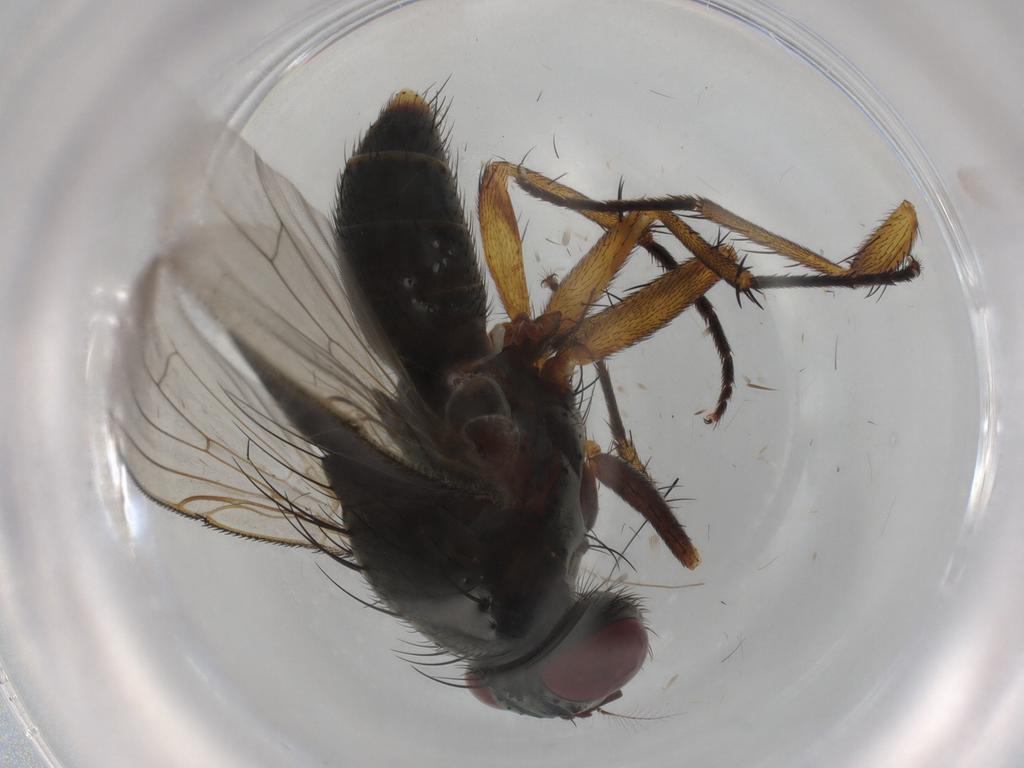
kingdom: Animalia
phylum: Arthropoda
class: Insecta
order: Diptera
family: Muscidae
